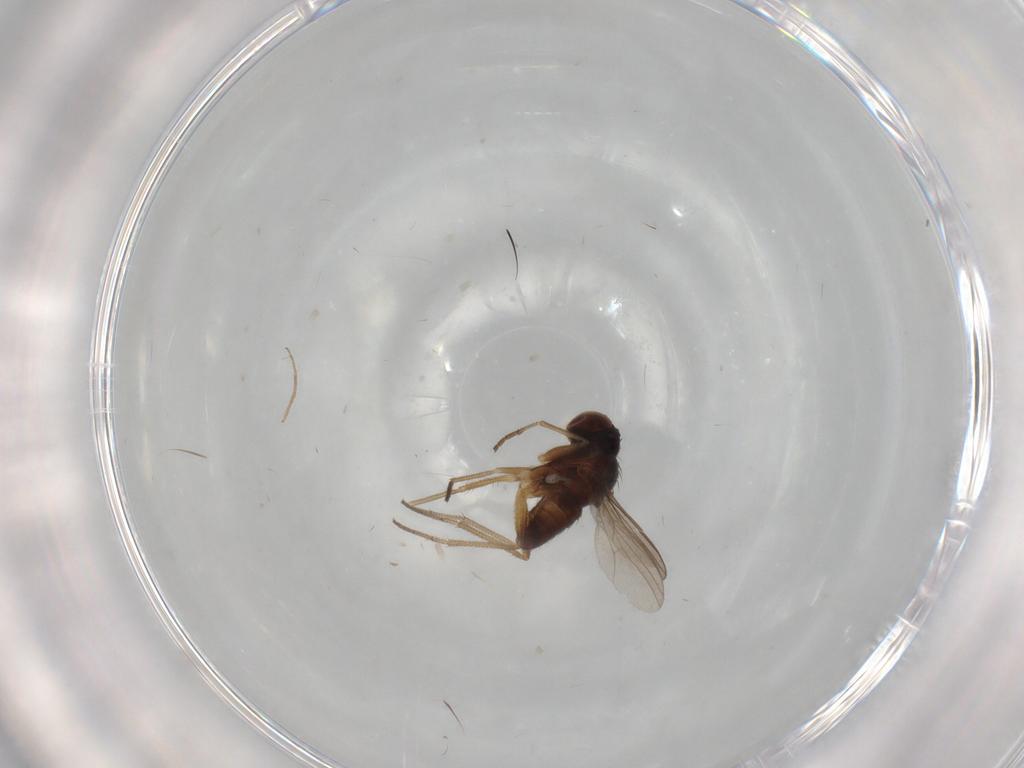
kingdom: Animalia
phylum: Arthropoda
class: Insecta
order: Diptera
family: Dolichopodidae
